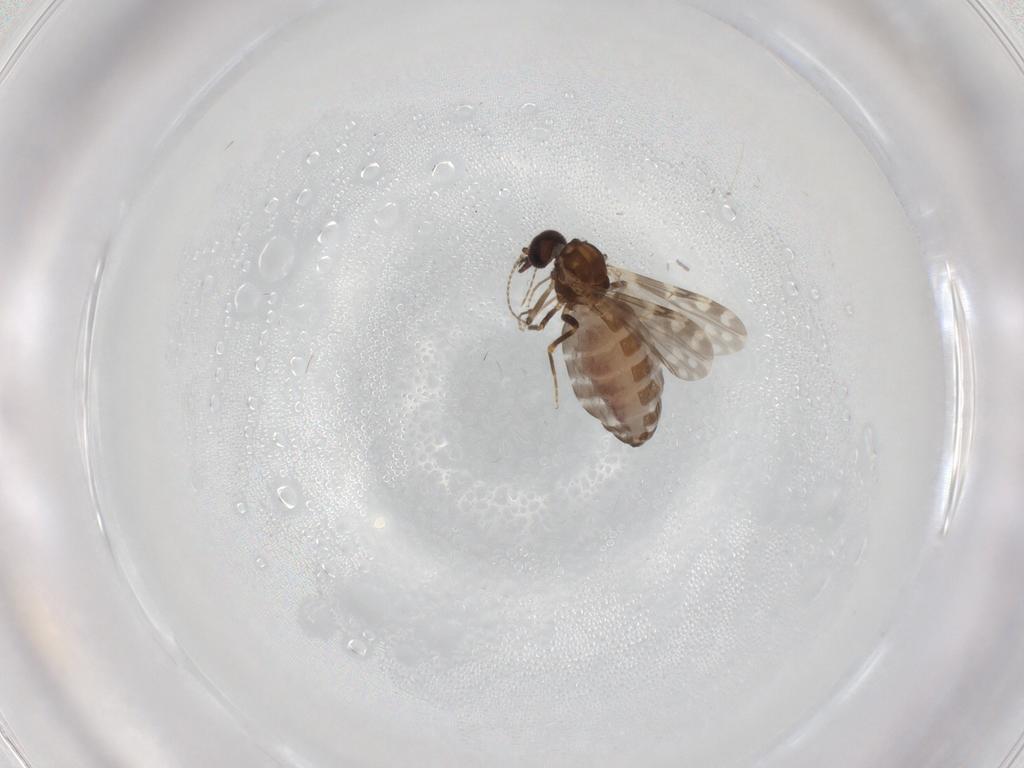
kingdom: Animalia
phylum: Arthropoda
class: Insecta
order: Diptera
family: Ceratopogonidae
